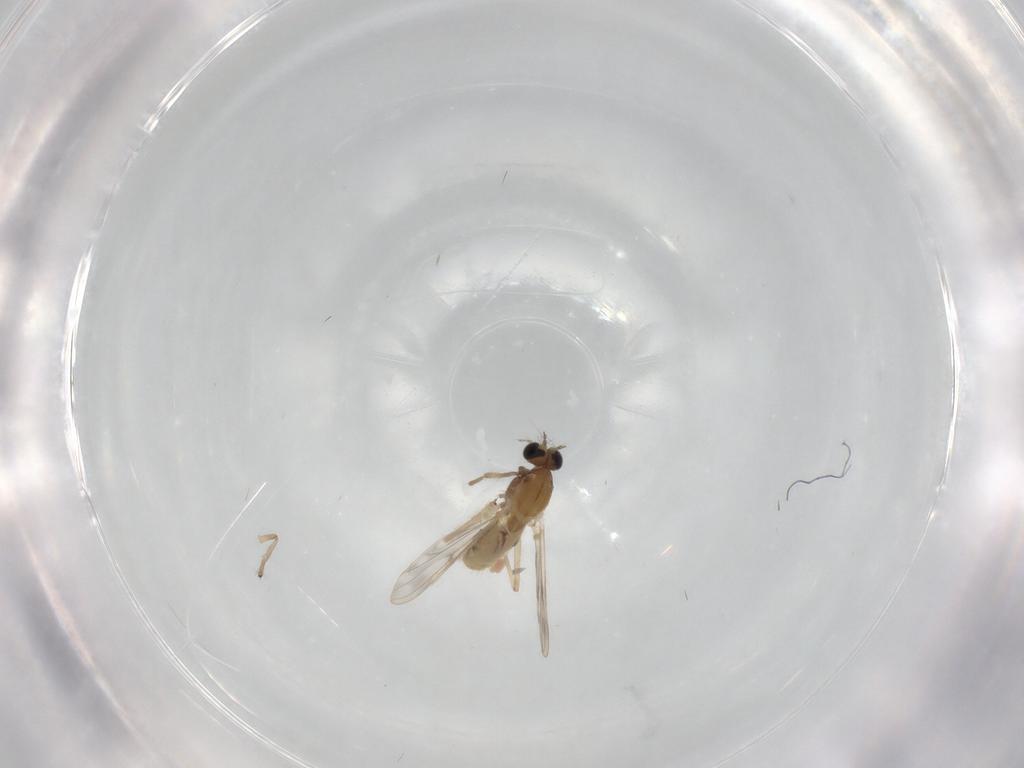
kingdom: Animalia
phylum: Arthropoda
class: Insecta
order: Diptera
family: Chironomidae
